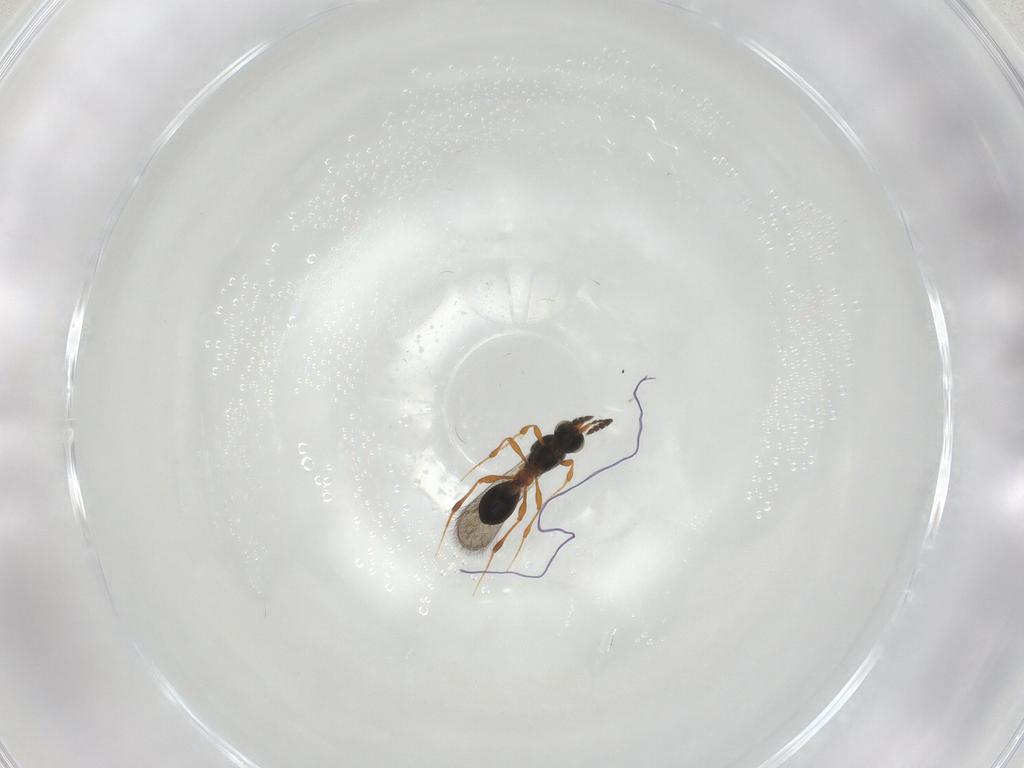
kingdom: Animalia
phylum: Arthropoda
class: Insecta
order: Hymenoptera
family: Platygastridae
